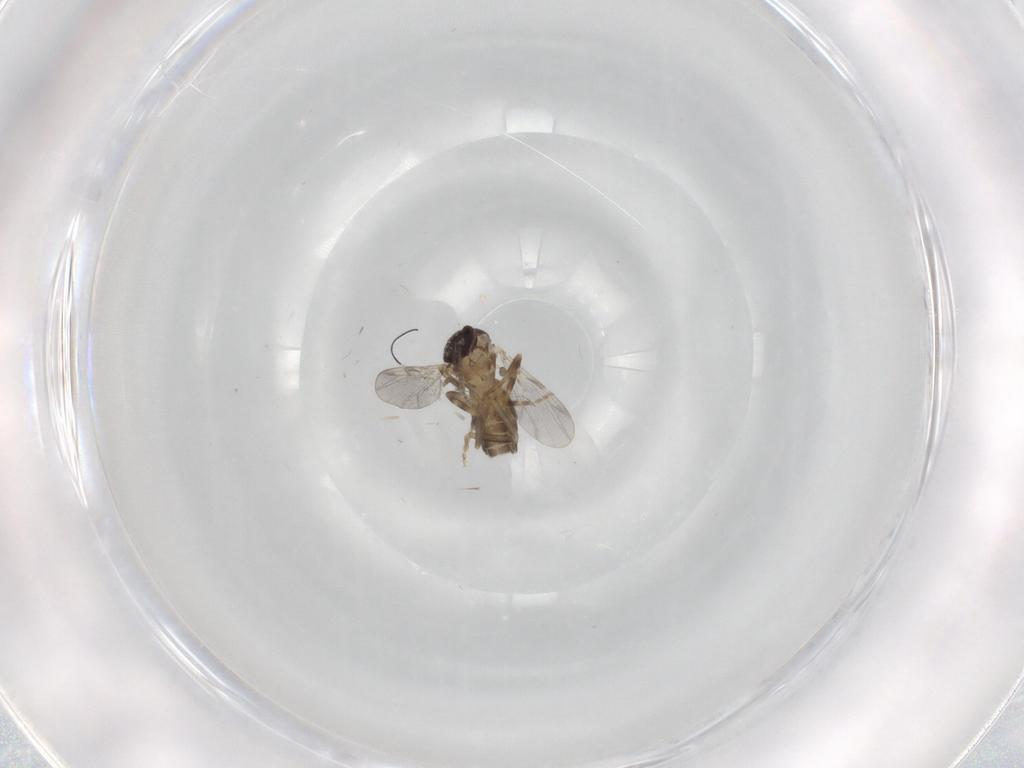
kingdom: Animalia
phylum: Arthropoda
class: Insecta
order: Diptera
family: Ceratopogonidae
